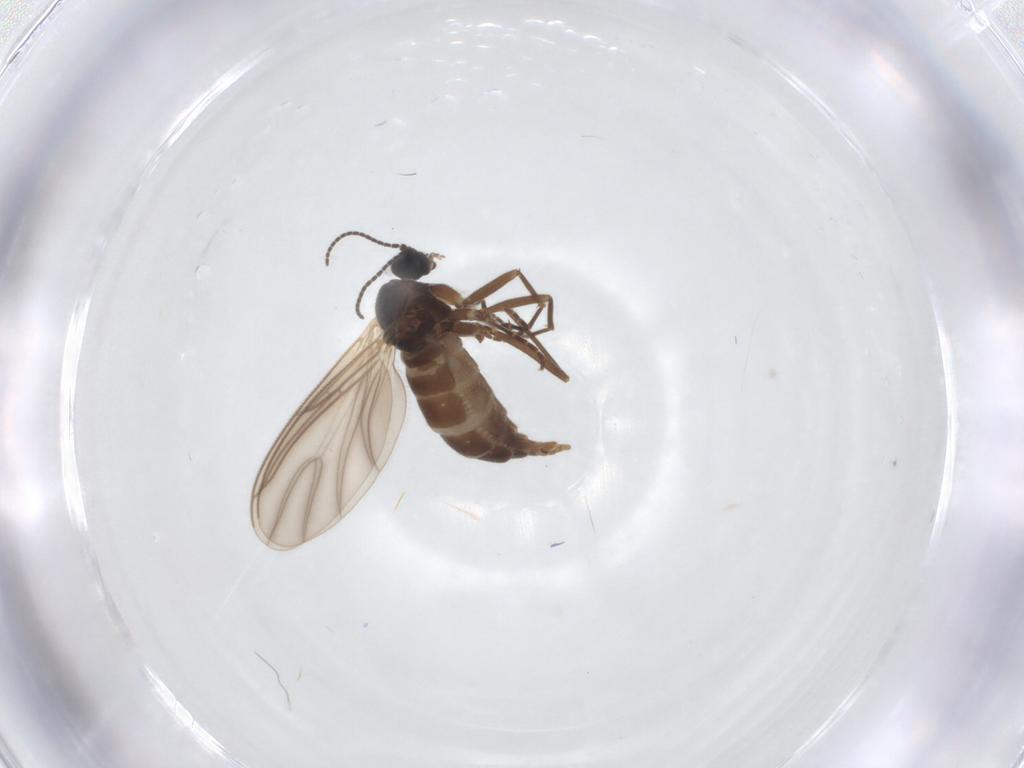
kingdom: Animalia
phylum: Arthropoda
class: Insecta
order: Diptera
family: Sciaridae
